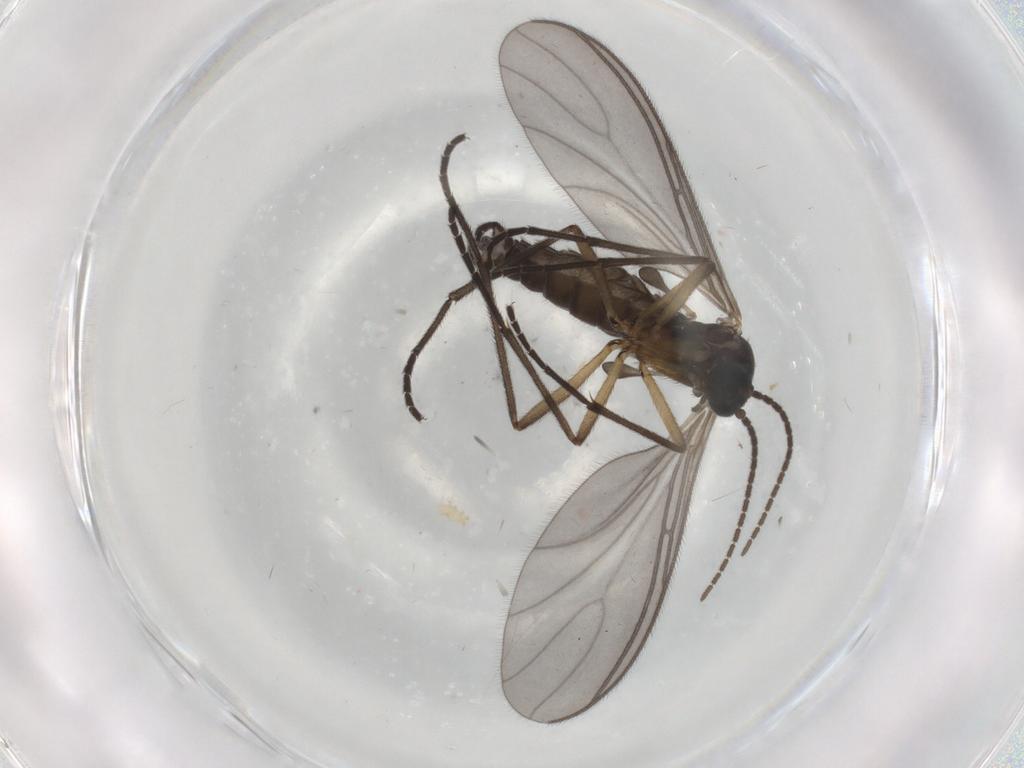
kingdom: Animalia
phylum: Arthropoda
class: Insecta
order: Diptera
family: Sciaridae
